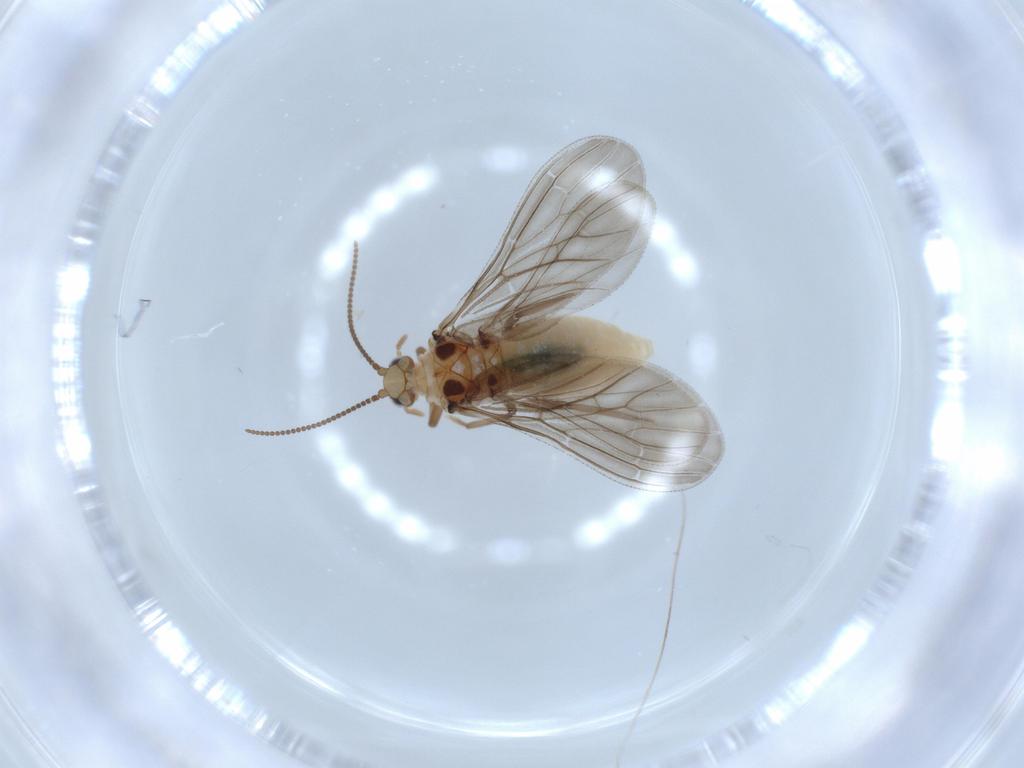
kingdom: Animalia
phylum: Arthropoda
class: Insecta
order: Neuroptera
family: Coniopterygidae
